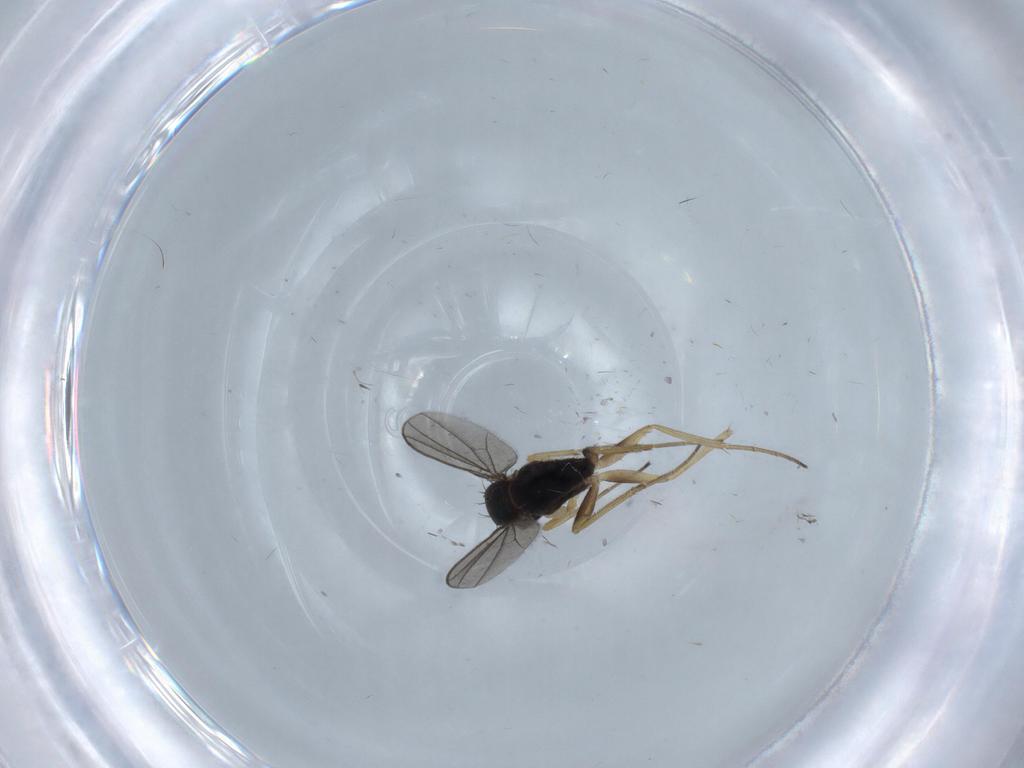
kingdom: Animalia
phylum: Arthropoda
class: Insecta
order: Diptera
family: Dolichopodidae
